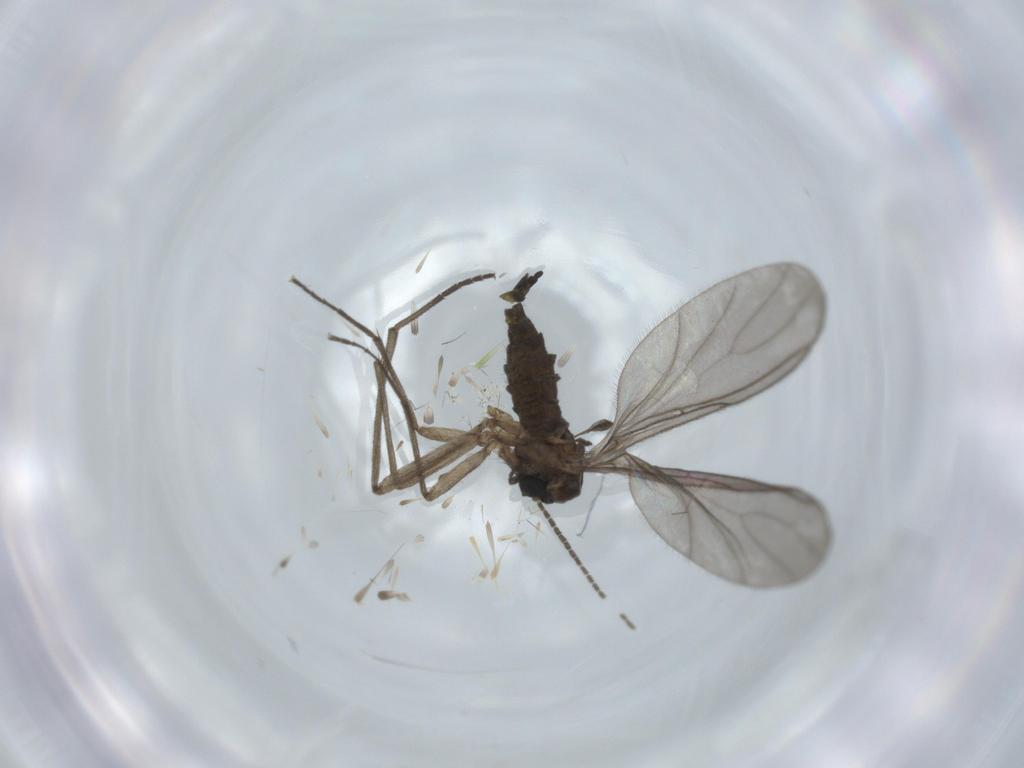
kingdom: Animalia
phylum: Arthropoda
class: Insecta
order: Diptera
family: Sciaridae
